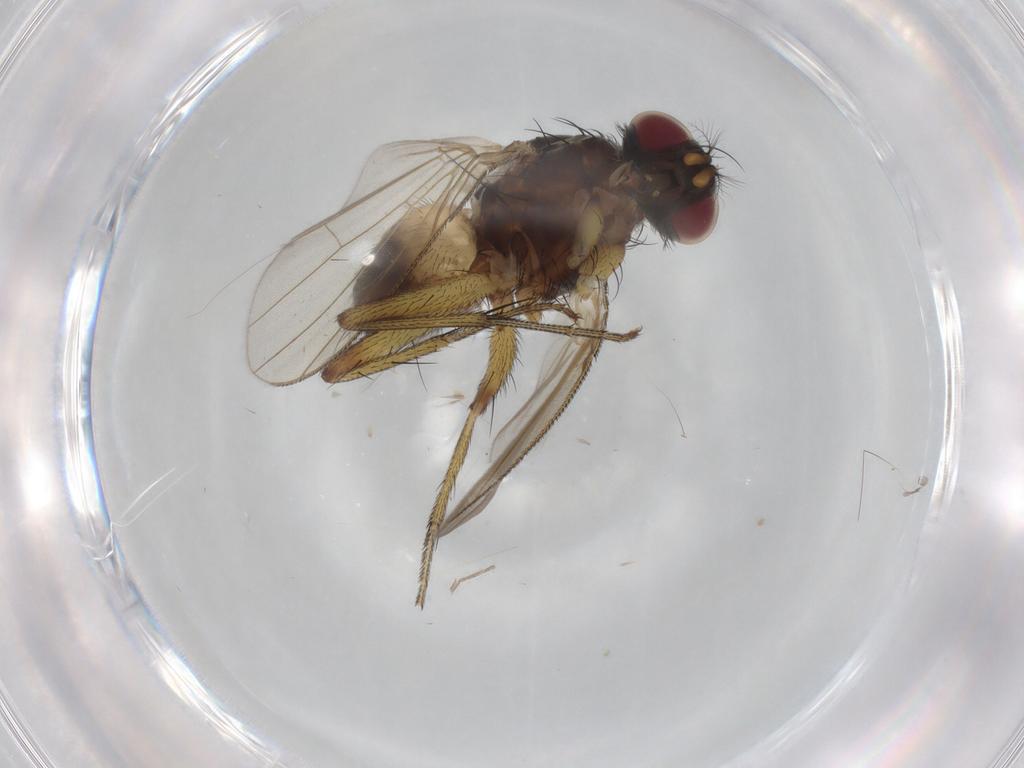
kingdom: Animalia
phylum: Arthropoda
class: Insecta
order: Diptera
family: Muscidae
